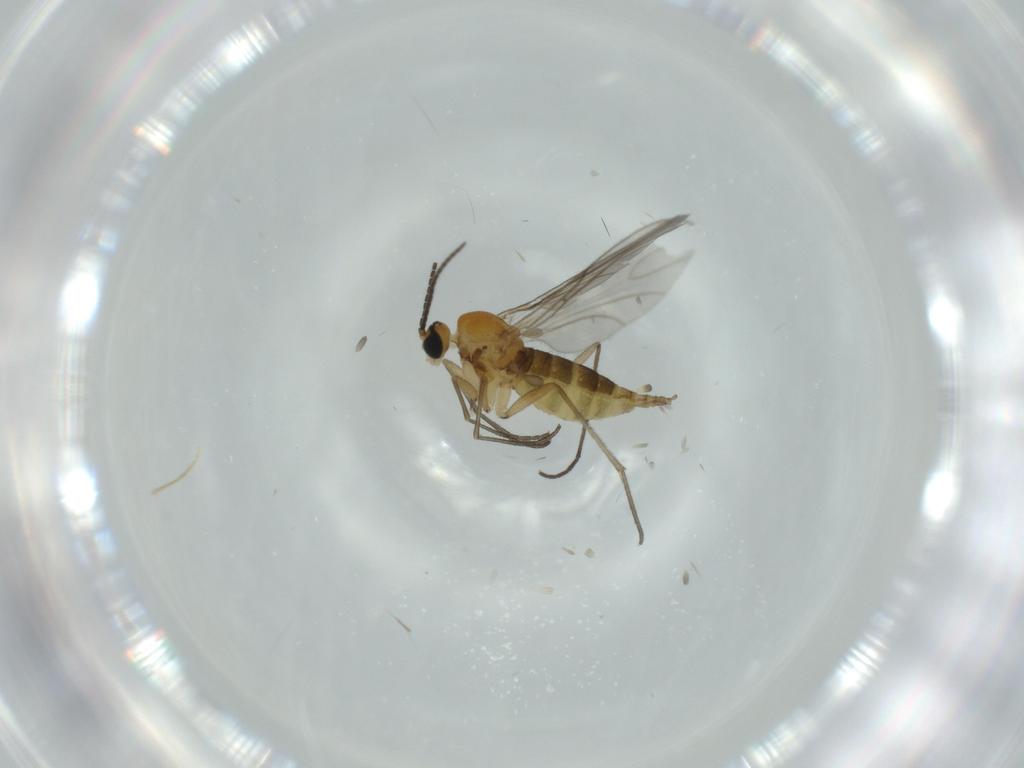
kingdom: Animalia
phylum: Arthropoda
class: Insecta
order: Diptera
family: Sciaridae
